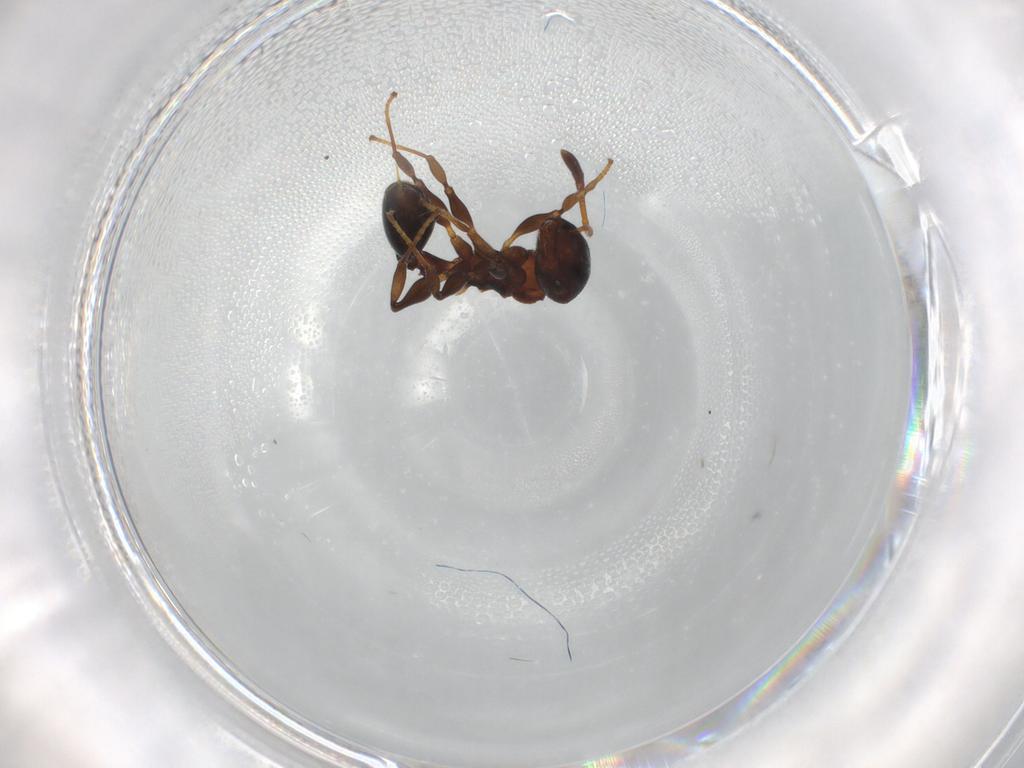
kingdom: Animalia
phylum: Arthropoda
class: Insecta
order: Hymenoptera
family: Formicidae
